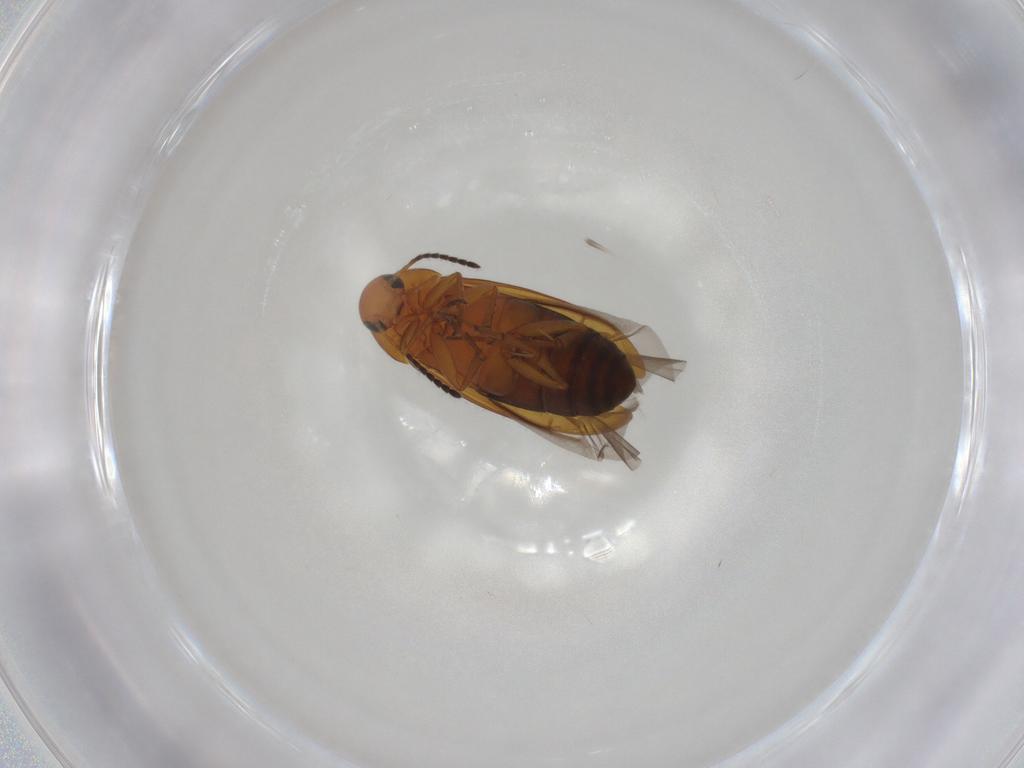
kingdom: Animalia
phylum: Arthropoda
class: Insecta
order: Coleoptera
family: Scraptiidae
